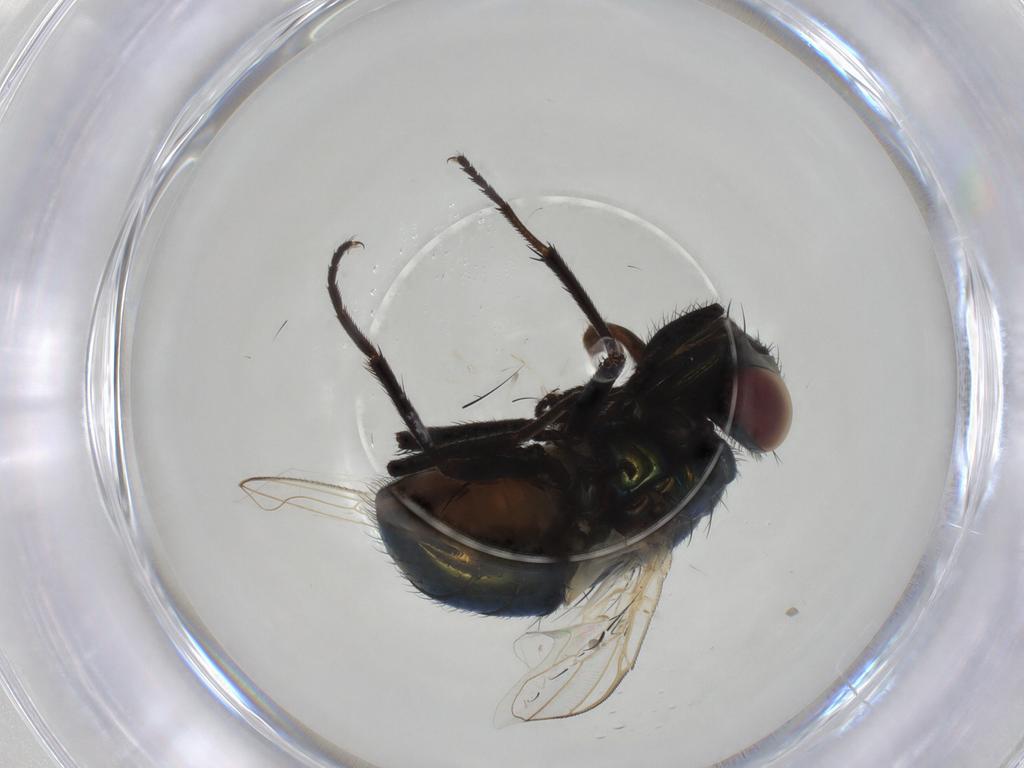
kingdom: Animalia
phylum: Arthropoda
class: Insecta
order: Diptera
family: Muscidae
